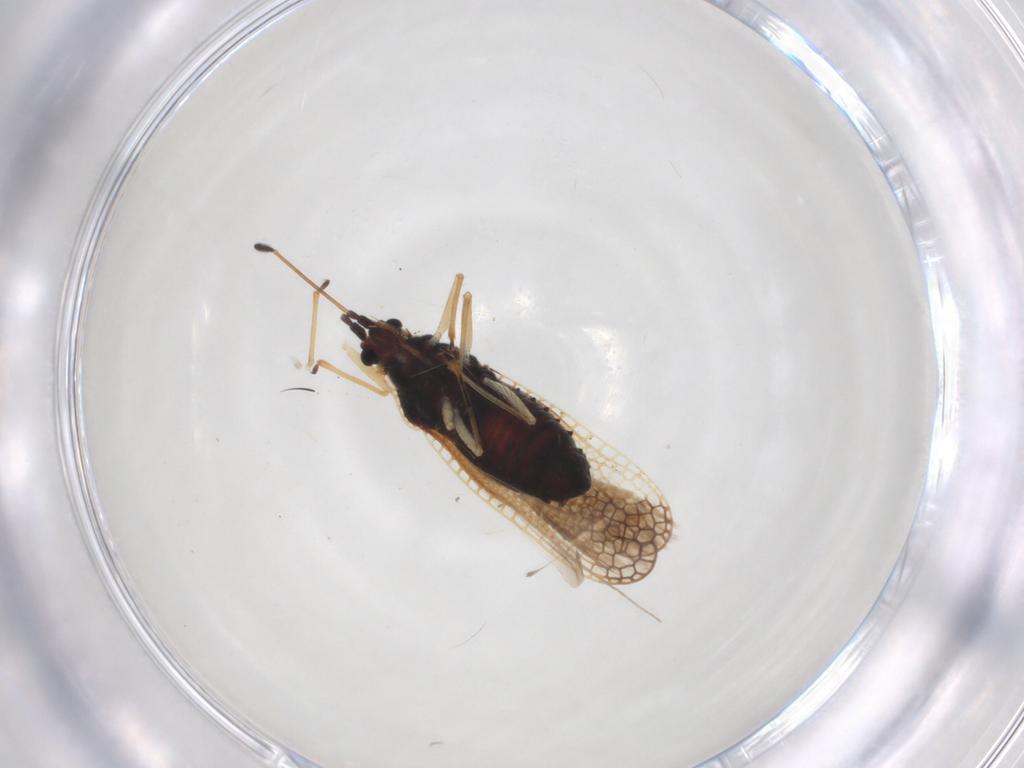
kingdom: Animalia
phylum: Arthropoda
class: Insecta
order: Hemiptera
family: Tingidae
